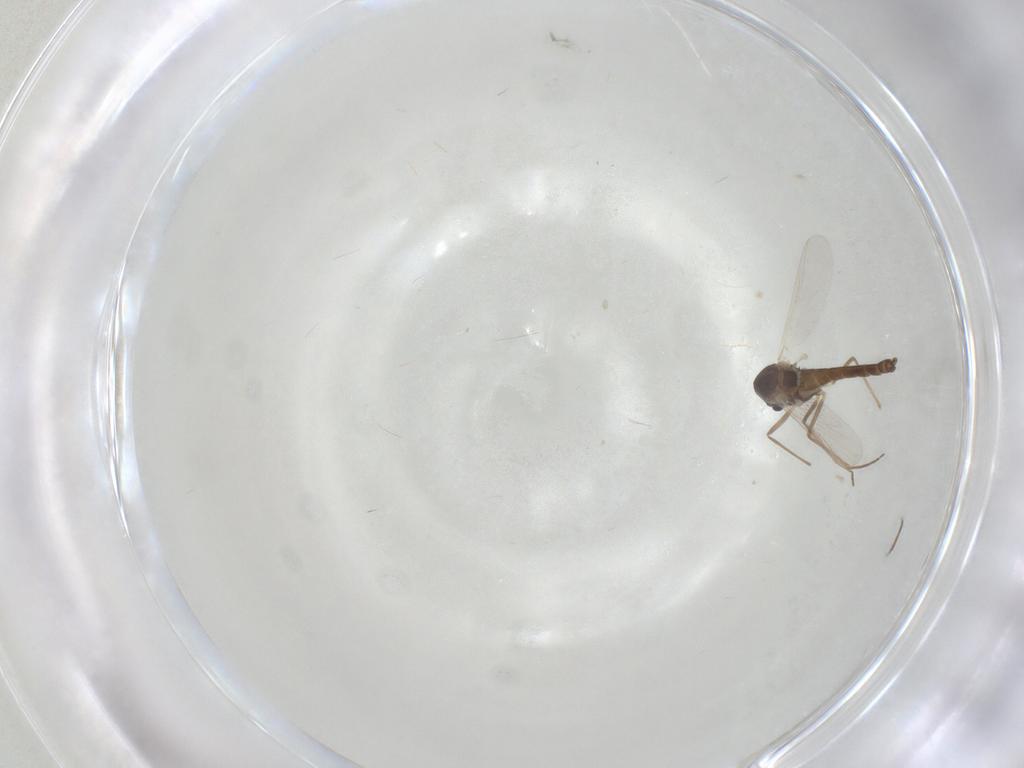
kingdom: Animalia
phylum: Arthropoda
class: Insecta
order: Diptera
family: Chironomidae
